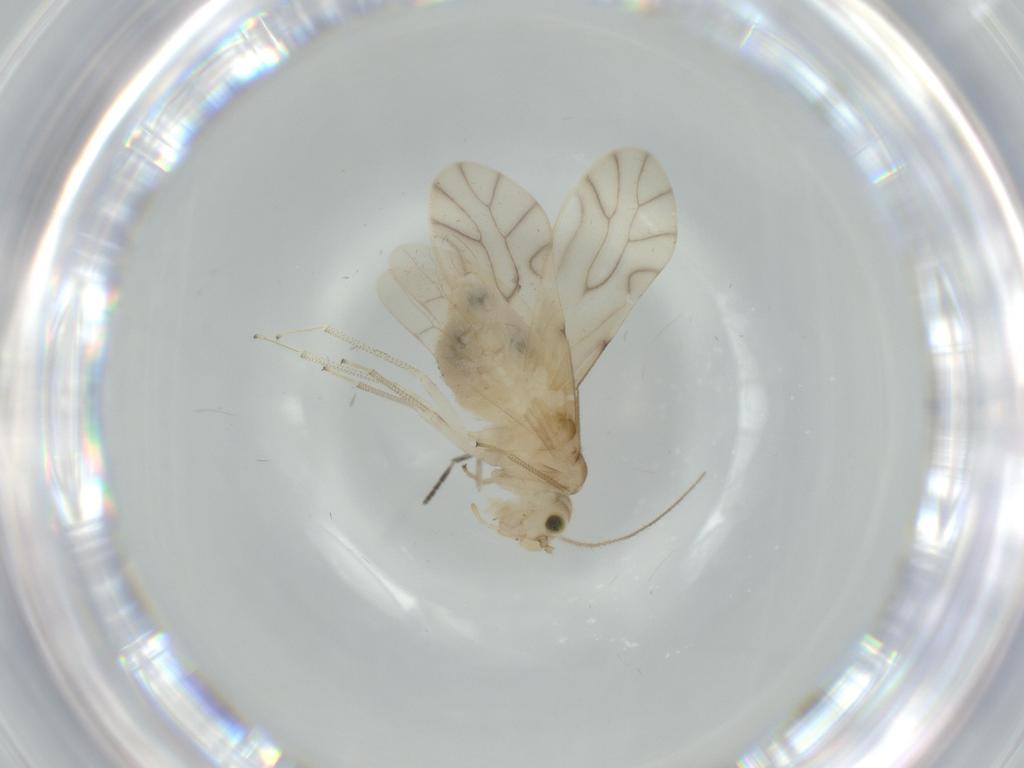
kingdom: Animalia
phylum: Arthropoda
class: Insecta
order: Psocodea
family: Caeciliusidae
